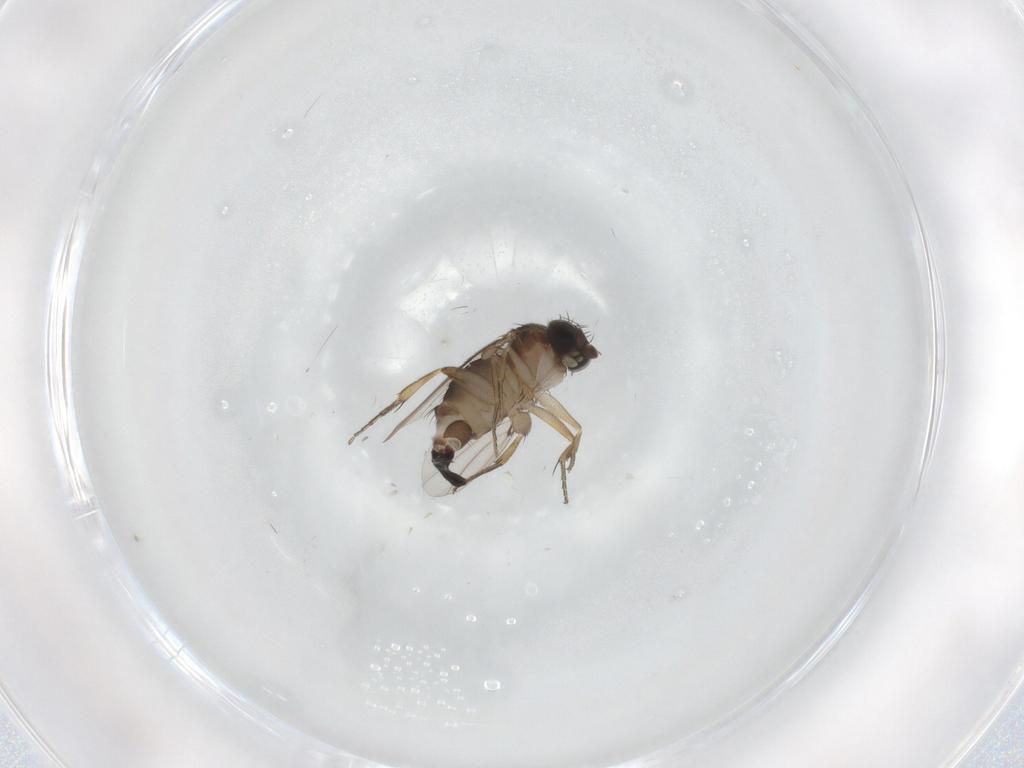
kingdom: Animalia
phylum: Arthropoda
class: Insecta
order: Diptera
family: Phoridae
